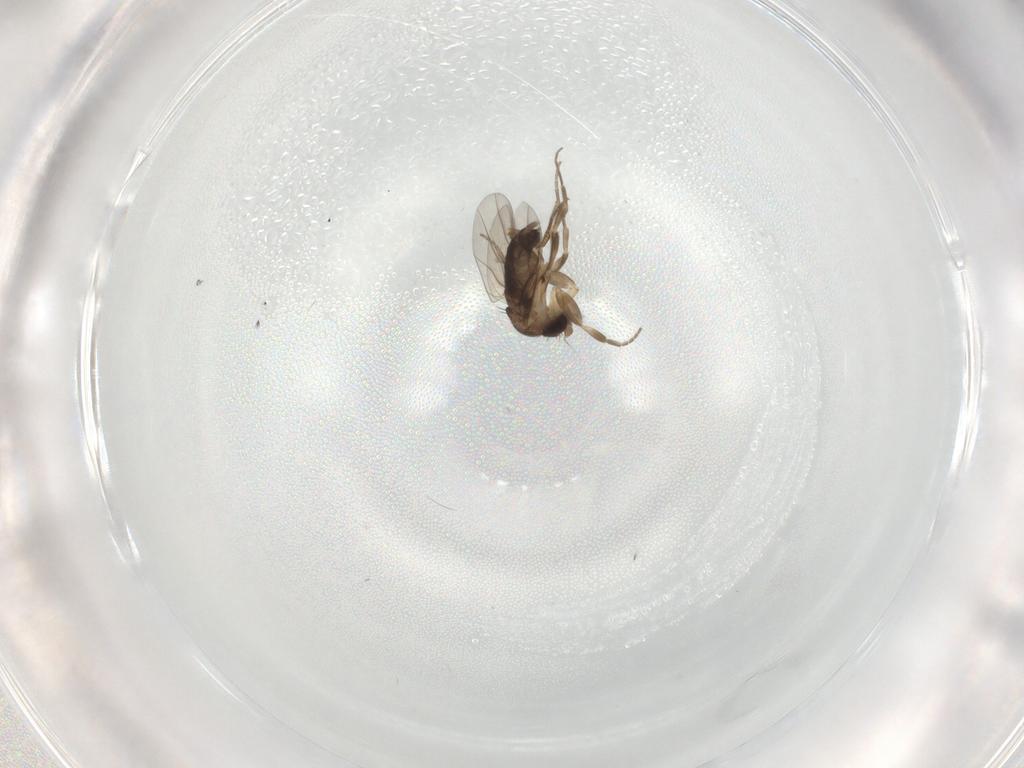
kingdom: Animalia
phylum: Arthropoda
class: Insecta
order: Diptera
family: Phoridae
